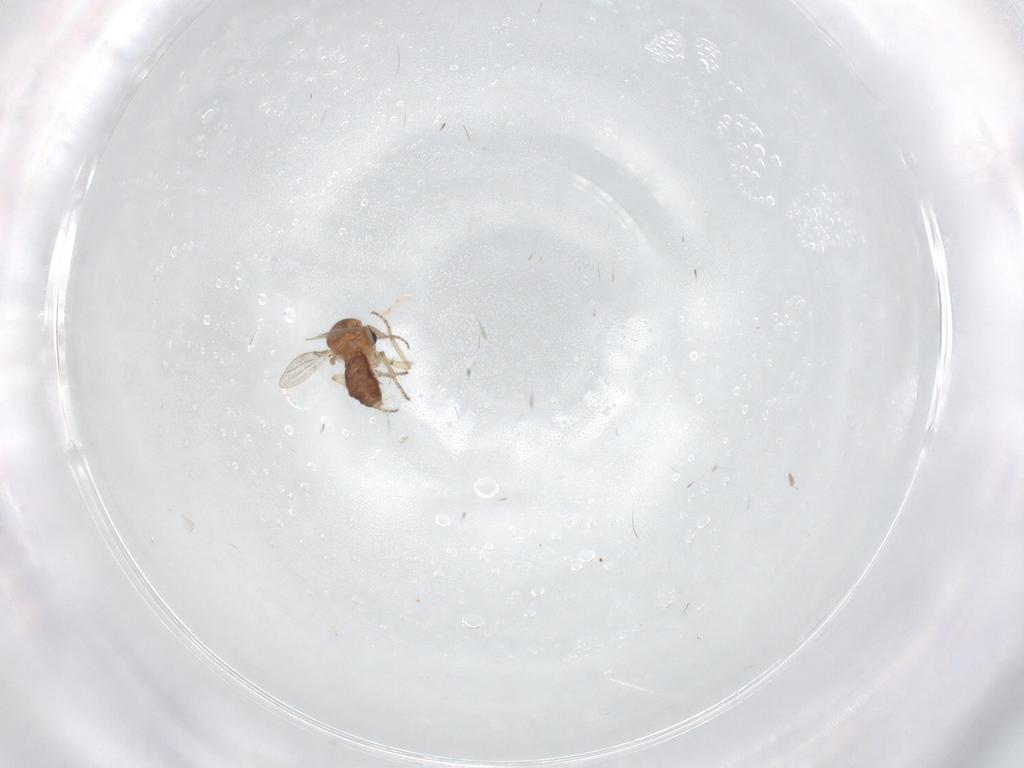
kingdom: Animalia
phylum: Arthropoda
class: Insecta
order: Diptera
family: Ceratopogonidae
